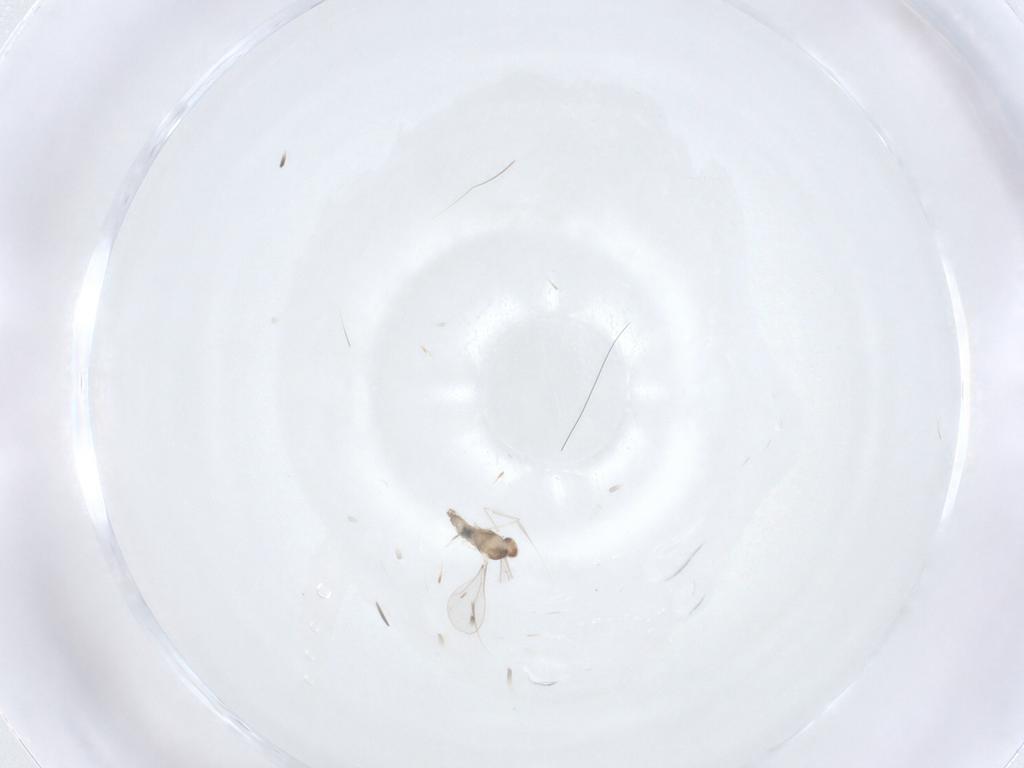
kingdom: Animalia
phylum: Arthropoda
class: Insecta
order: Diptera
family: Cecidomyiidae
